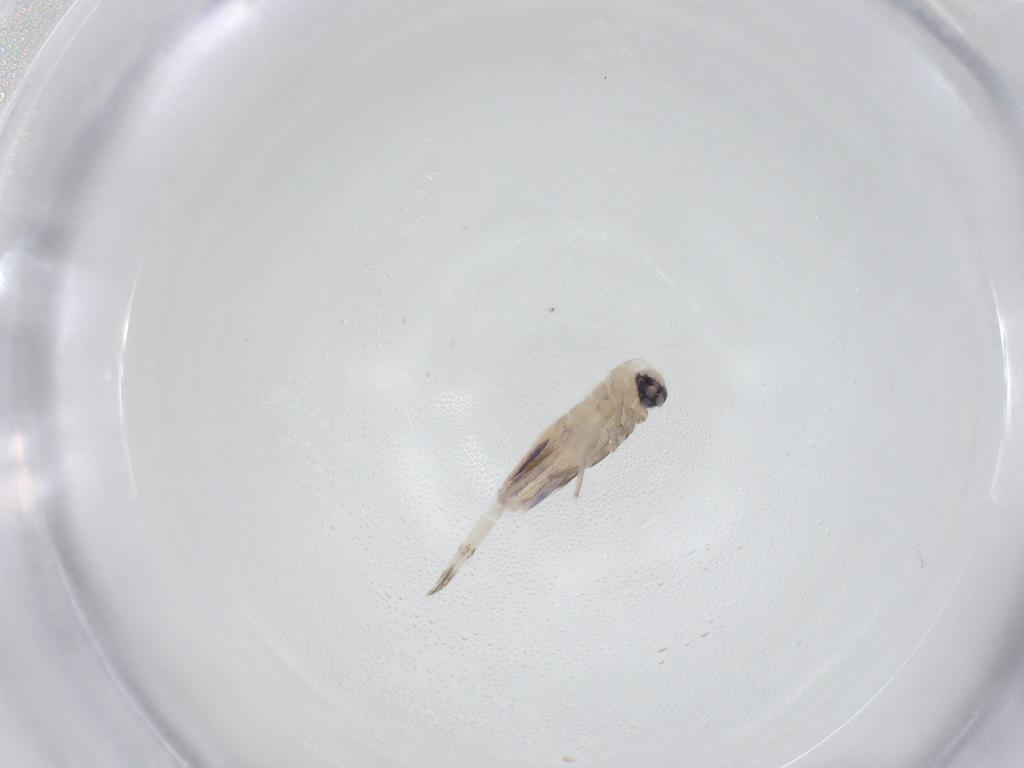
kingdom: Animalia
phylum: Arthropoda
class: Collembola
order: Entomobryomorpha
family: Entomobryidae
